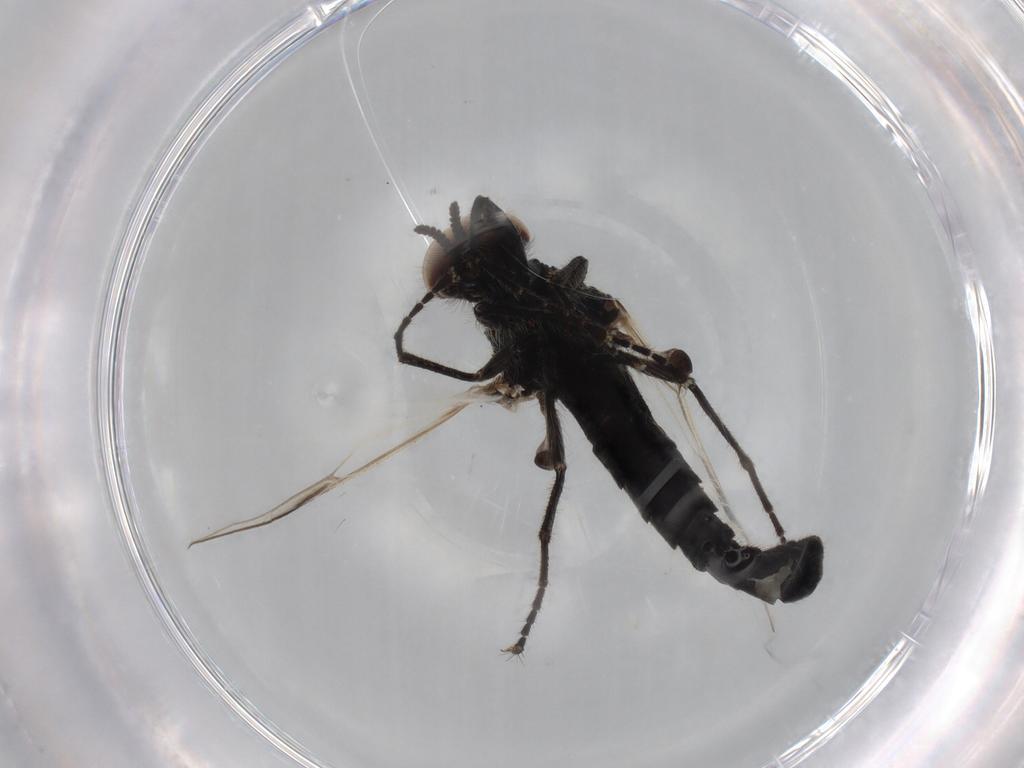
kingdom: Animalia
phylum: Arthropoda
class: Insecta
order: Diptera
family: Bibionidae
